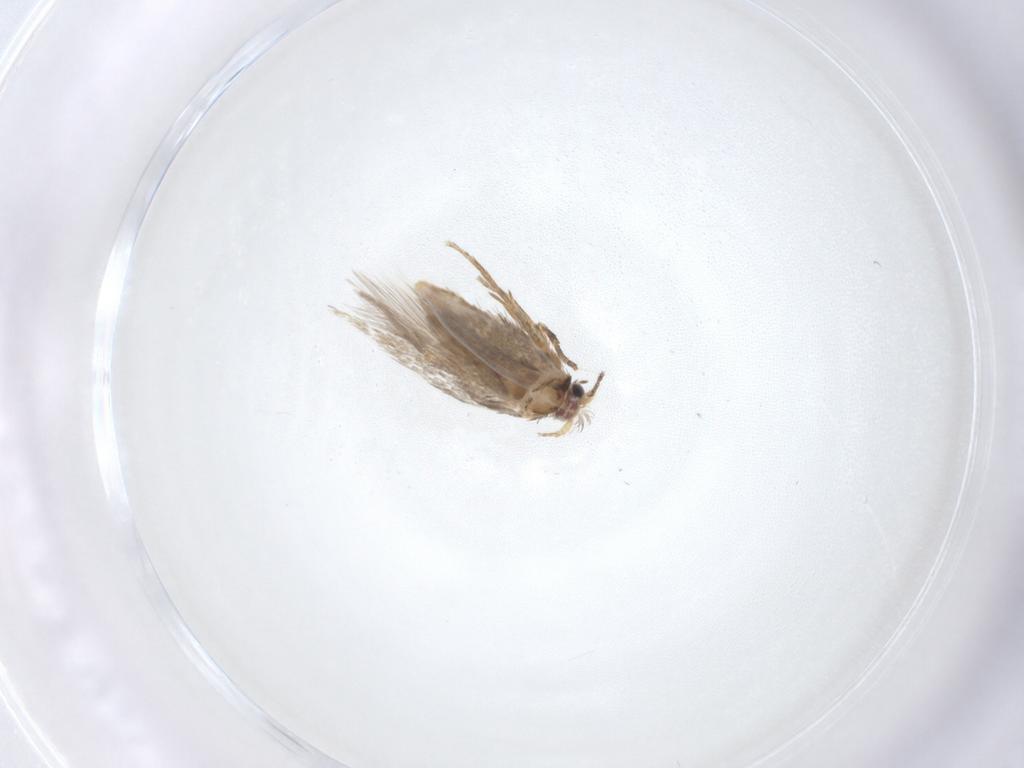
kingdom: Animalia
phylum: Arthropoda
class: Insecta
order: Lepidoptera
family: Nepticulidae
